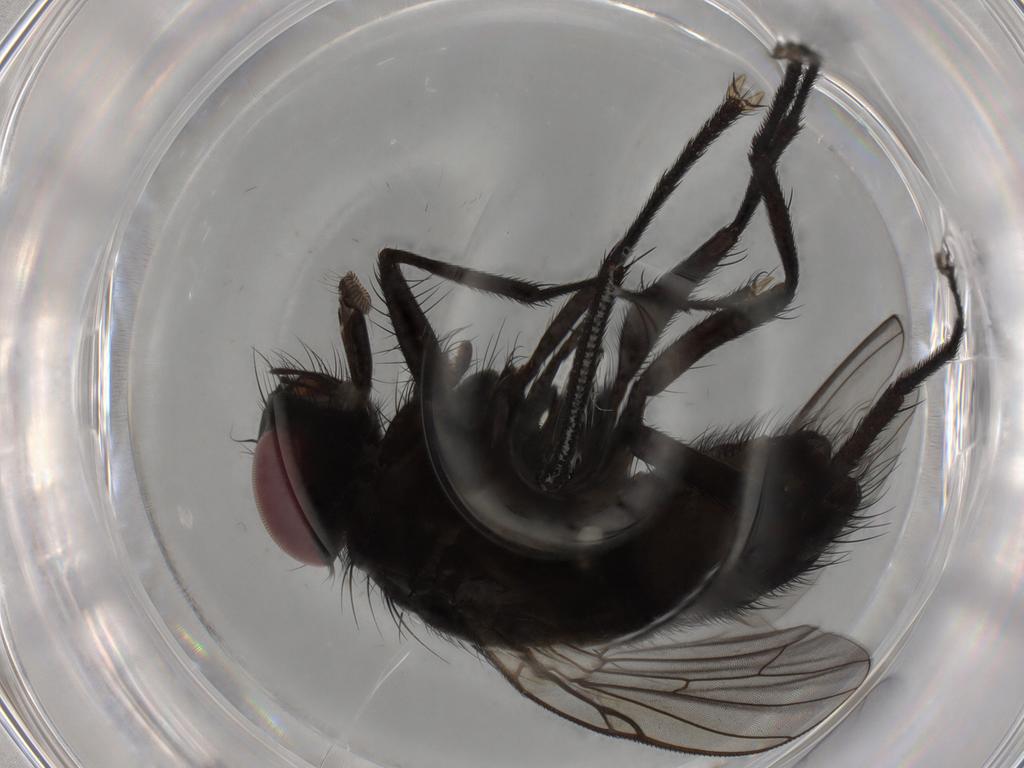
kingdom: Animalia
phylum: Arthropoda
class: Insecta
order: Diptera
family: Muscidae
